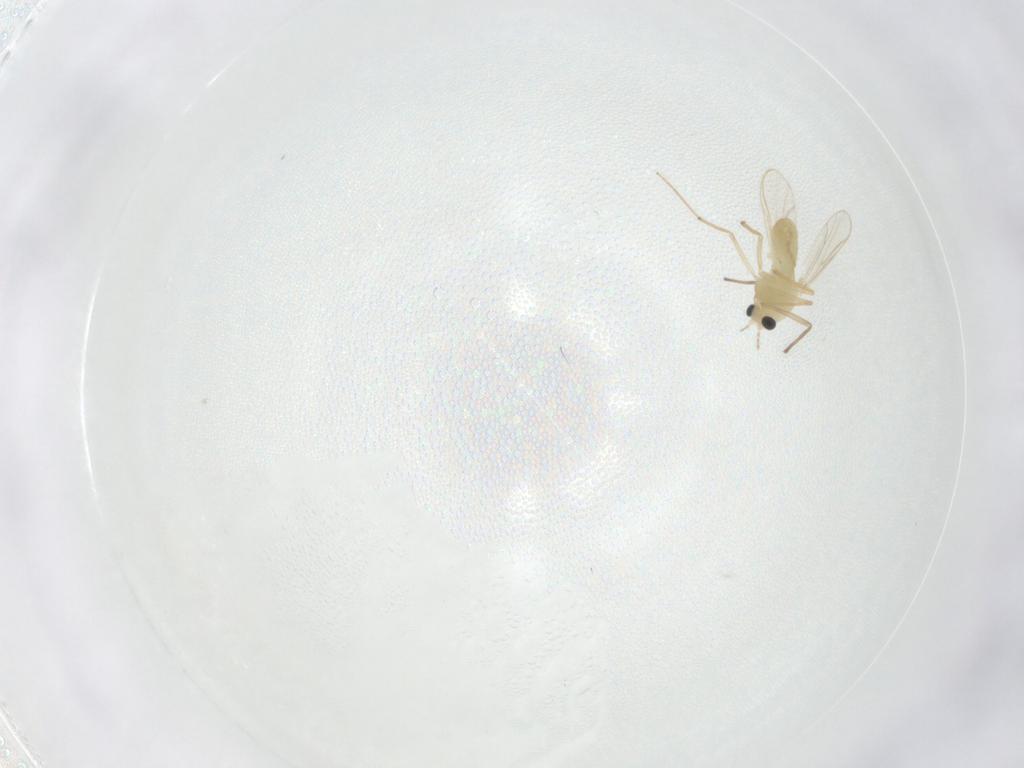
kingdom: Animalia
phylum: Arthropoda
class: Insecta
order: Diptera
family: Chironomidae
